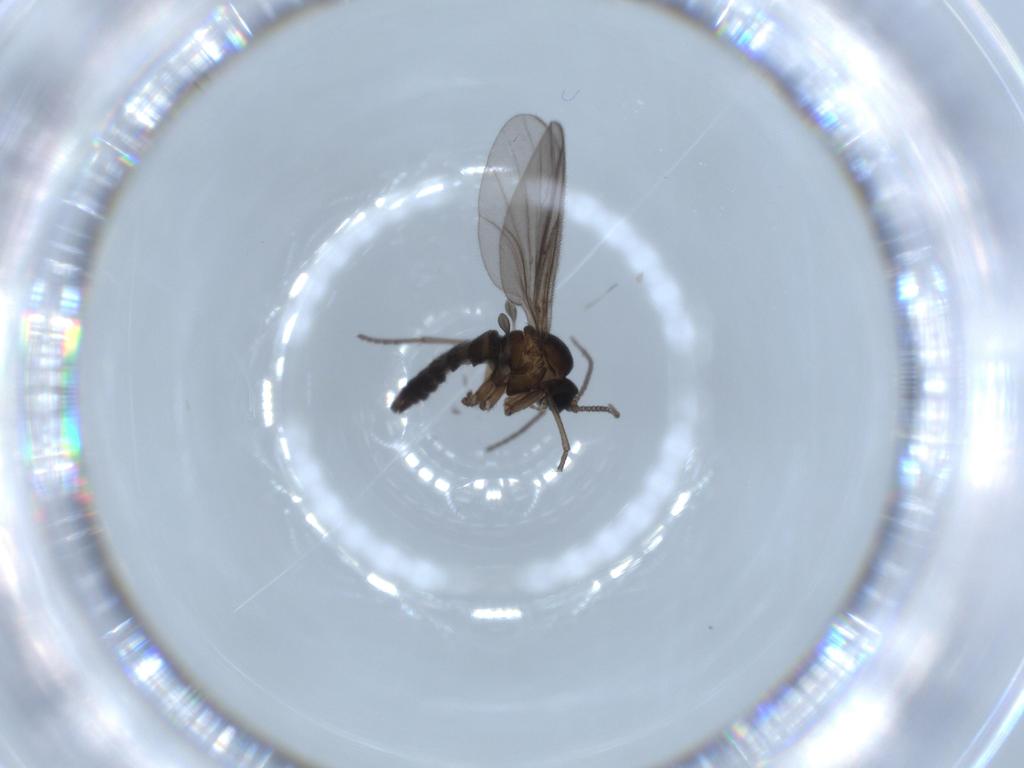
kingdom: Animalia
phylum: Arthropoda
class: Insecta
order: Diptera
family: Sciaridae
